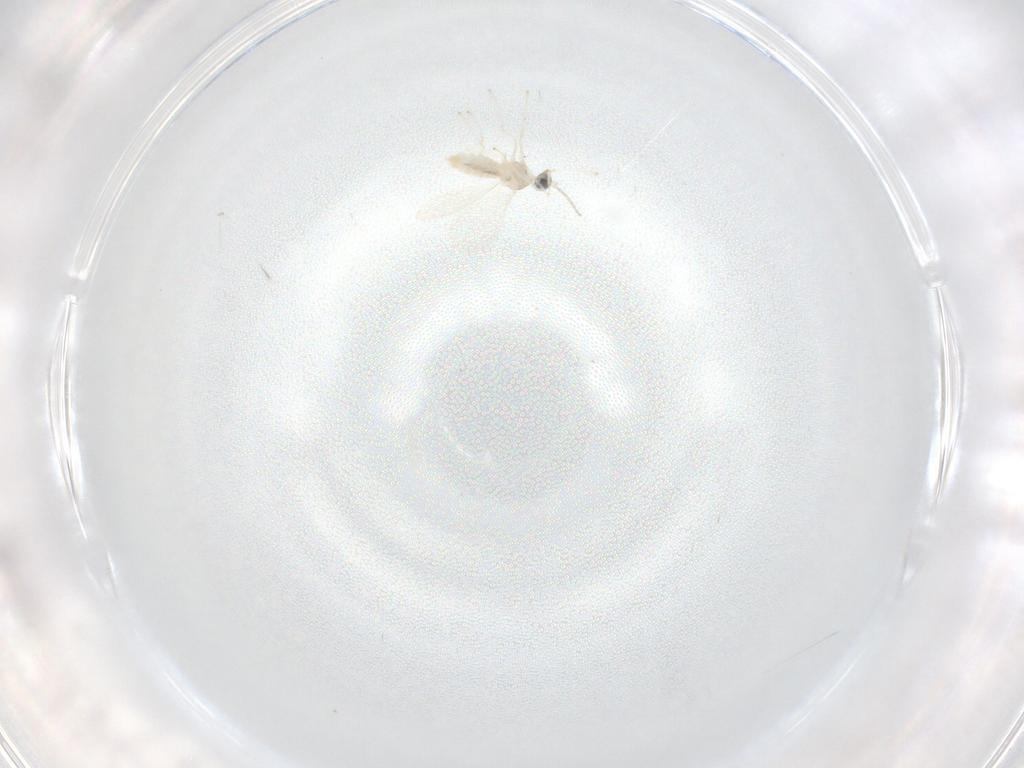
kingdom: Animalia
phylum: Arthropoda
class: Insecta
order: Diptera
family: Cecidomyiidae
